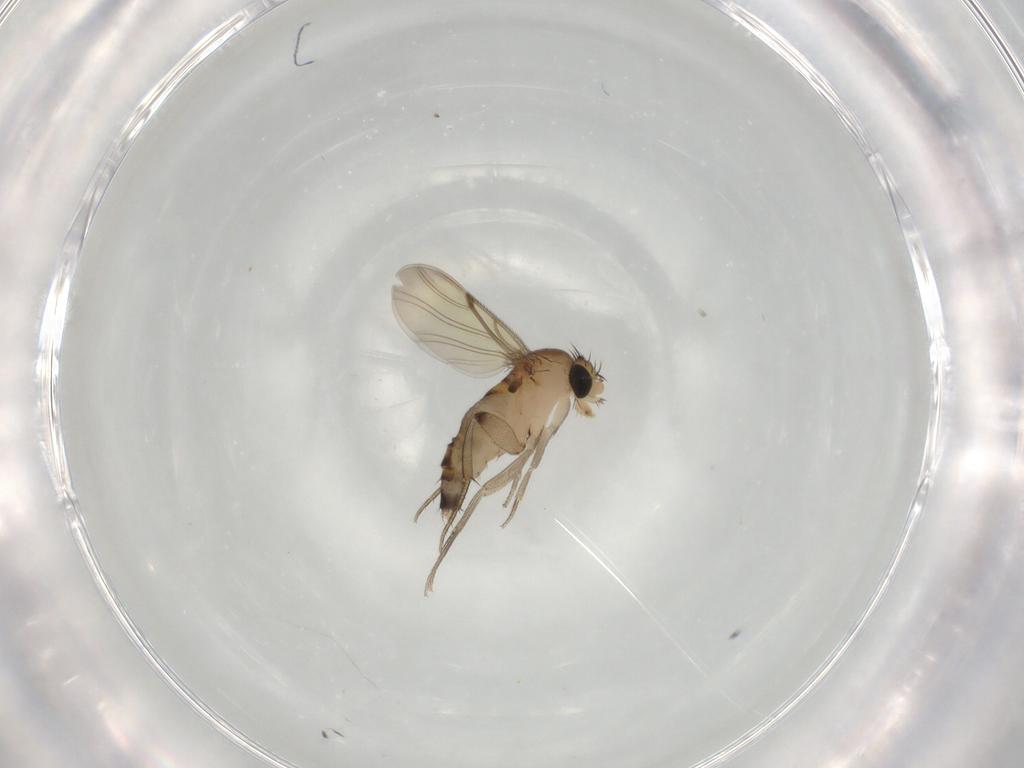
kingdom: Animalia
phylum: Arthropoda
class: Insecta
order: Diptera
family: Phoridae
